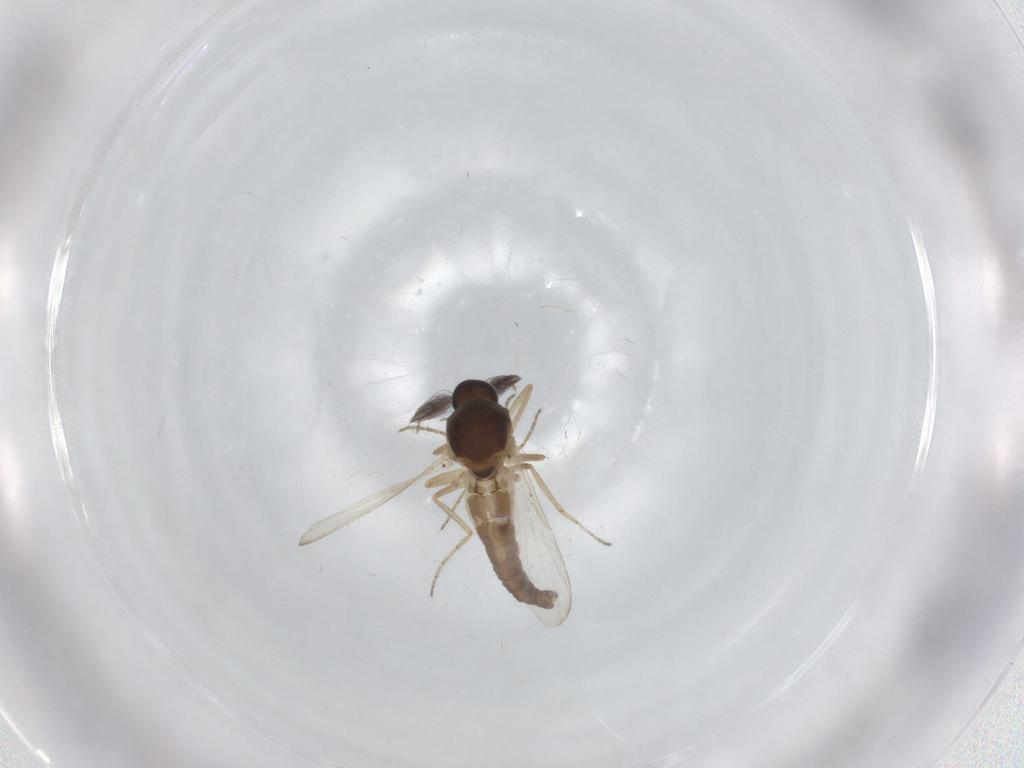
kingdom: Animalia
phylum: Arthropoda
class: Insecta
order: Diptera
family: Ceratopogonidae
